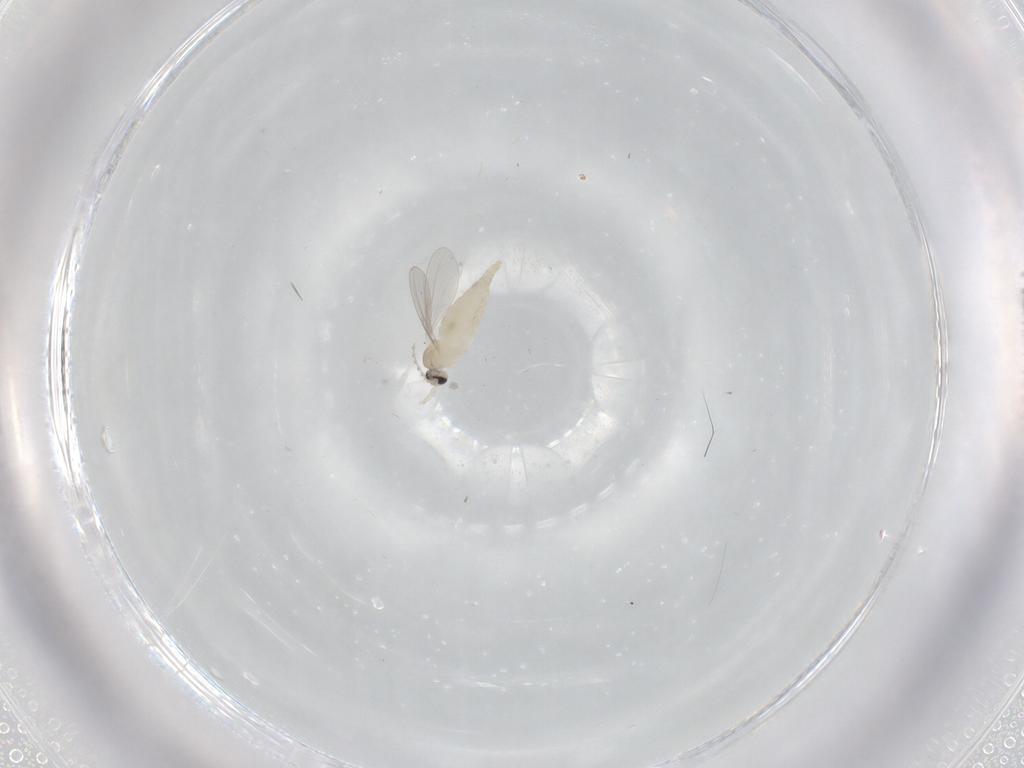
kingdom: Animalia
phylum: Arthropoda
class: Insecta
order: Diptera
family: Cecidomyiidae
